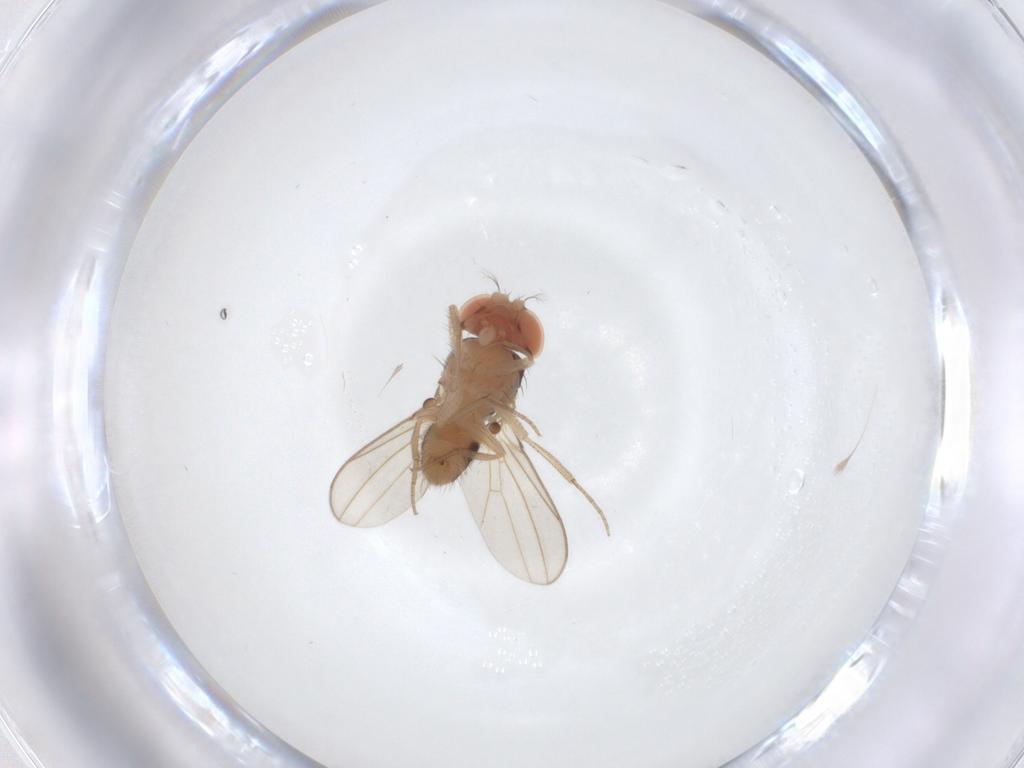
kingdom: Animalia
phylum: Arthropoda
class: Insecta
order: Diptera
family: Drosophilidae
